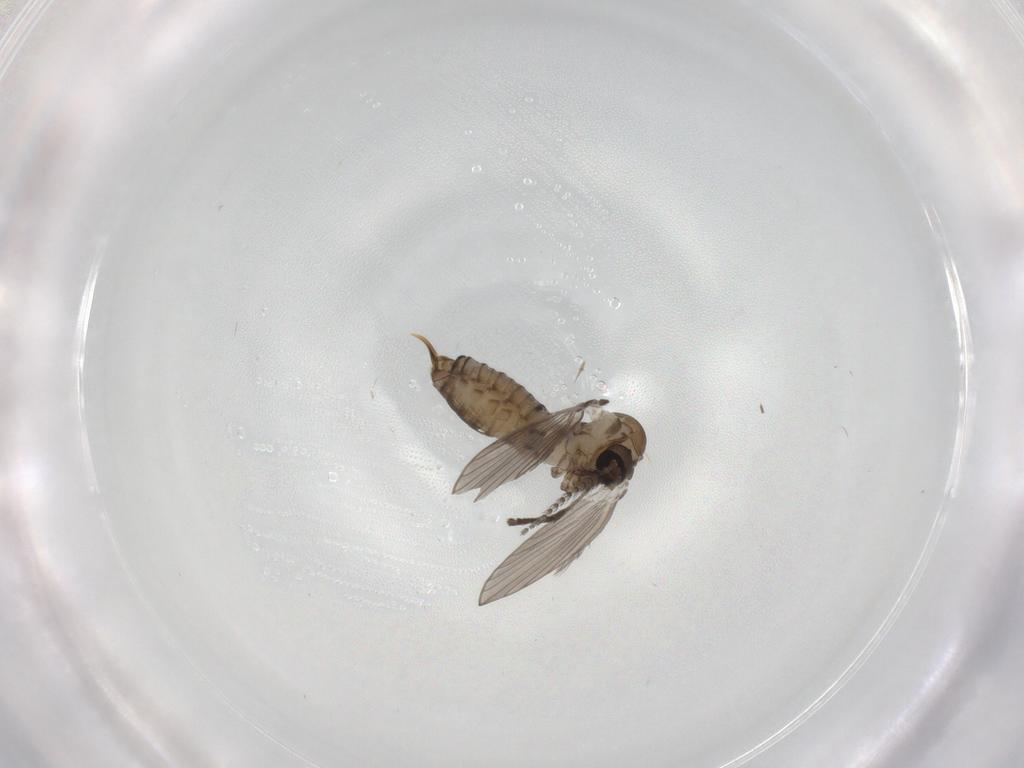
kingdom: Animalia
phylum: Arthropoda
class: Insecta
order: Diptera
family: Psychodidae
